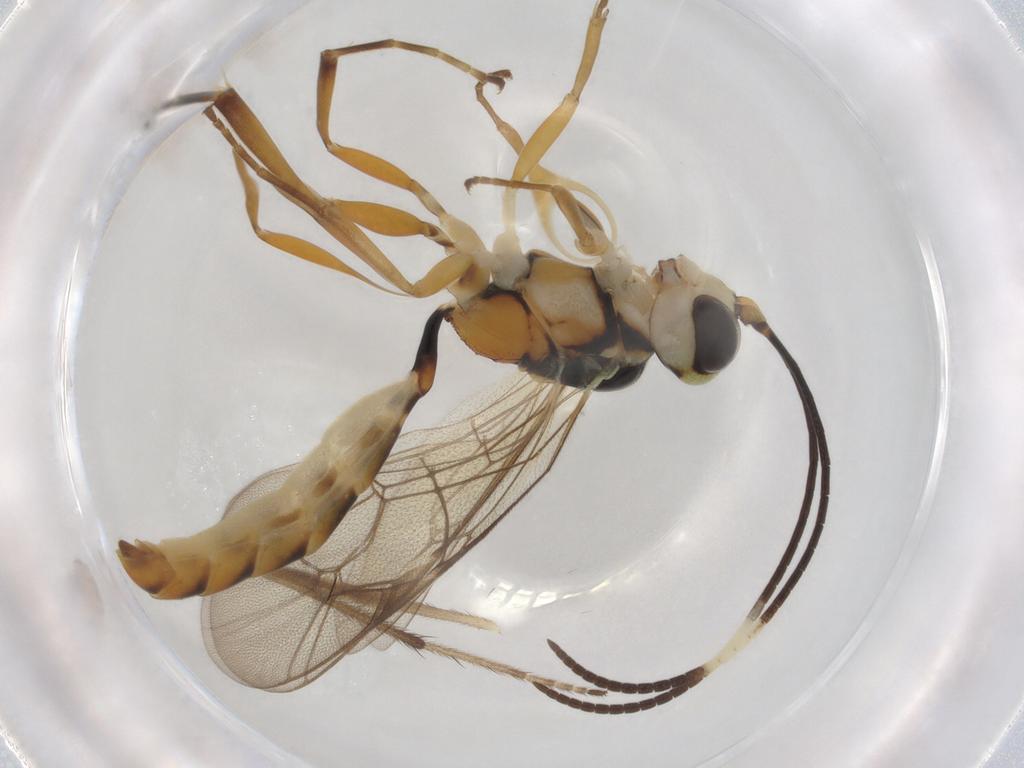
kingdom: Animalia
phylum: Arthropoda
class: Insecta
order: Hymenoptera
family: Ichneumonidae
